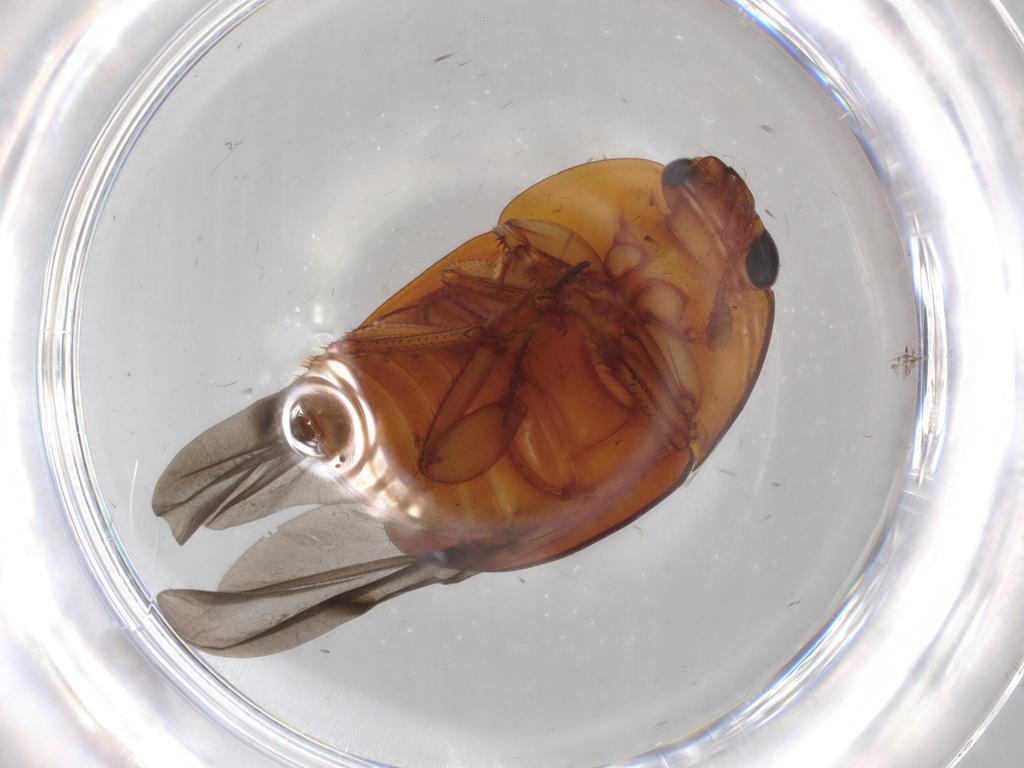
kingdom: Animalia
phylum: Arthropoda
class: Insecta
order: Coleoptera
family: Nitidulidae
